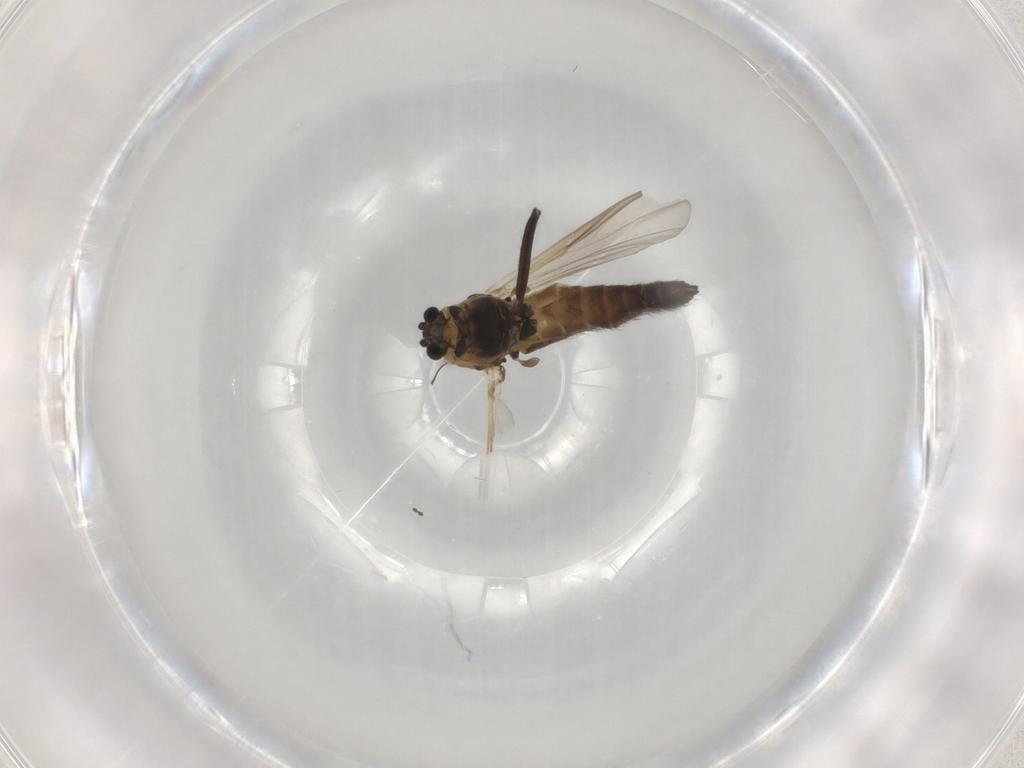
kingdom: Animalia
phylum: Arthropoda
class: Insecta
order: Diptera
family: Chironomidae
